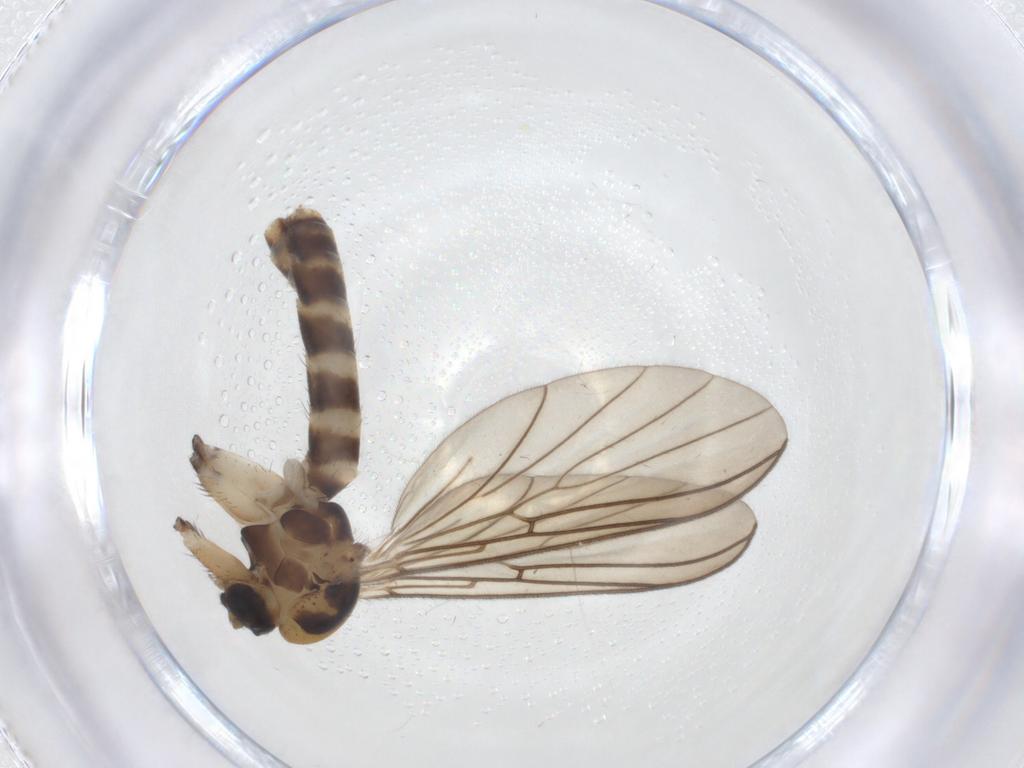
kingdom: Animalia
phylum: Arthropoda
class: Insecta
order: Diptera
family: Mycetophilidae
